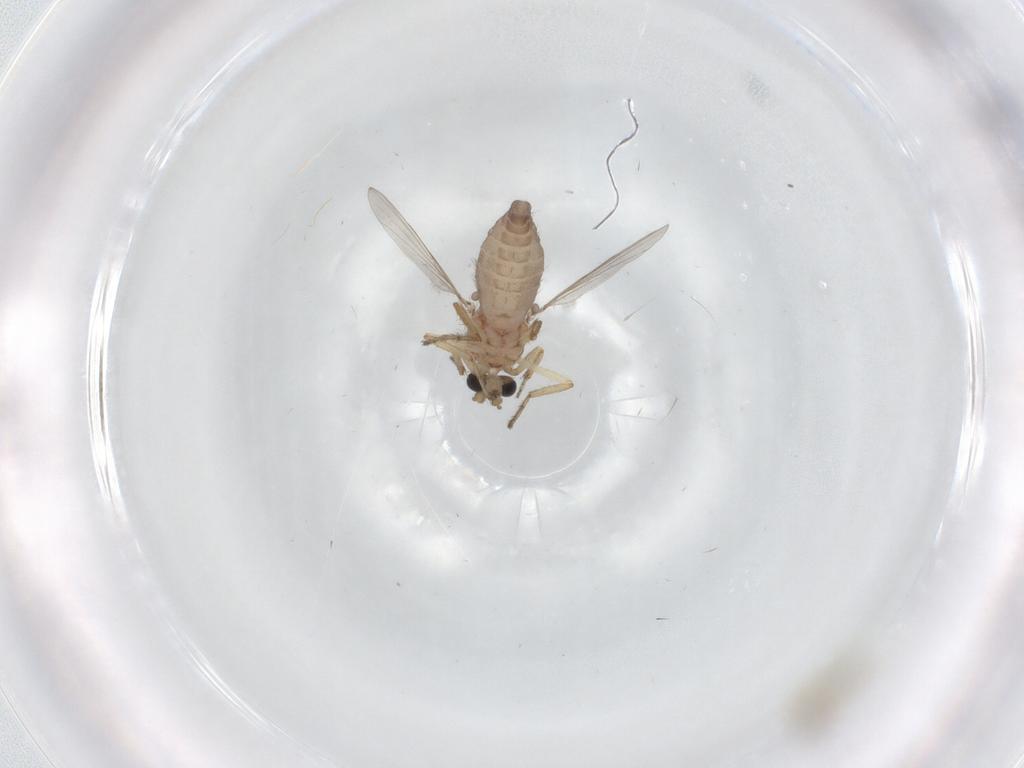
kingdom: Animalia
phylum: Arthropoda
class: Insecta
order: Diptera
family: Ceratopogonidae
